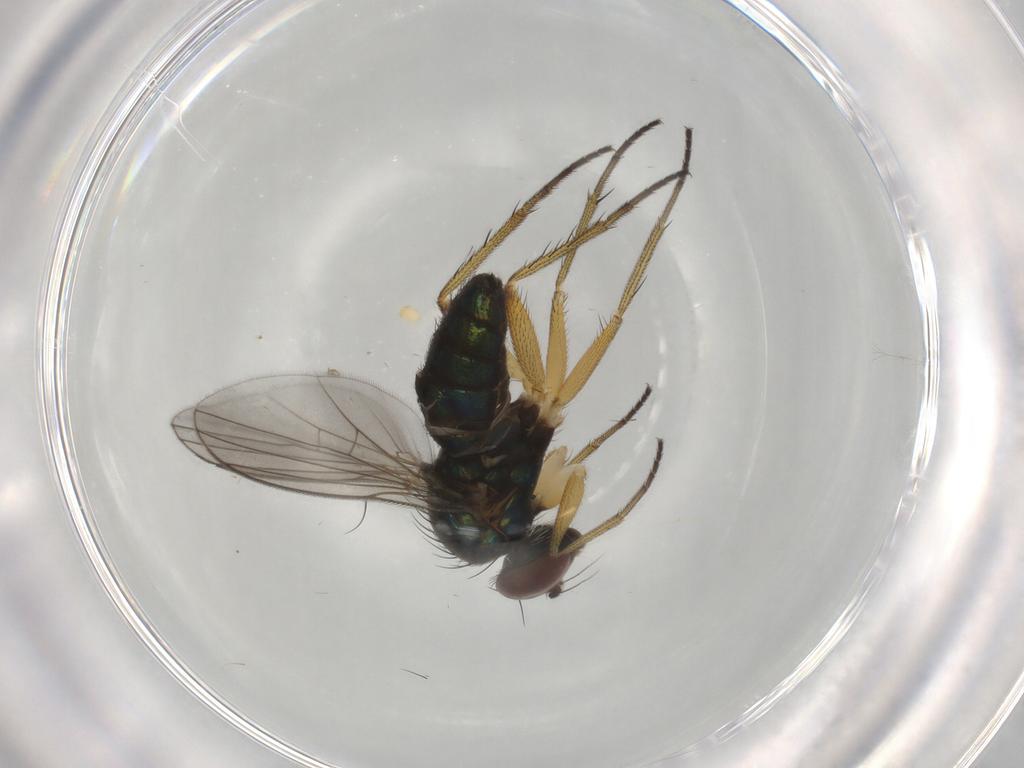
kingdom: Animalia
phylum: Arthropoda
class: Insecta
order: Diptera
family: Dolichopodidae
